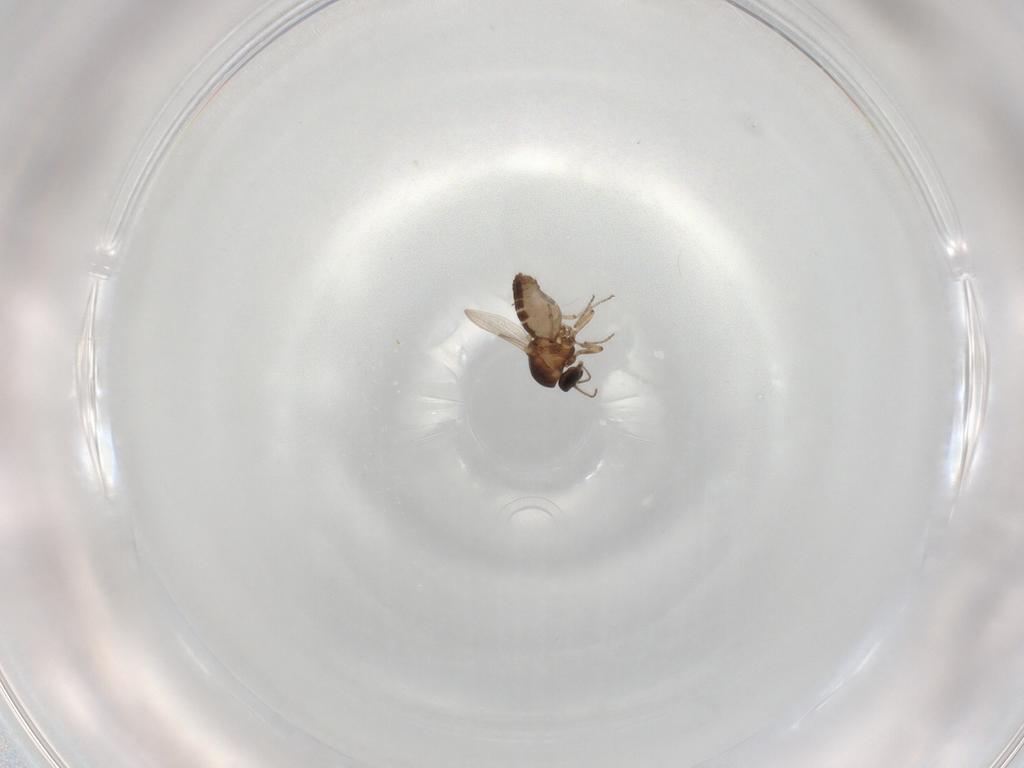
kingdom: Animalia
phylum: Arthropoda
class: Insecta
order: Diptera
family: Ceratopogonidae
